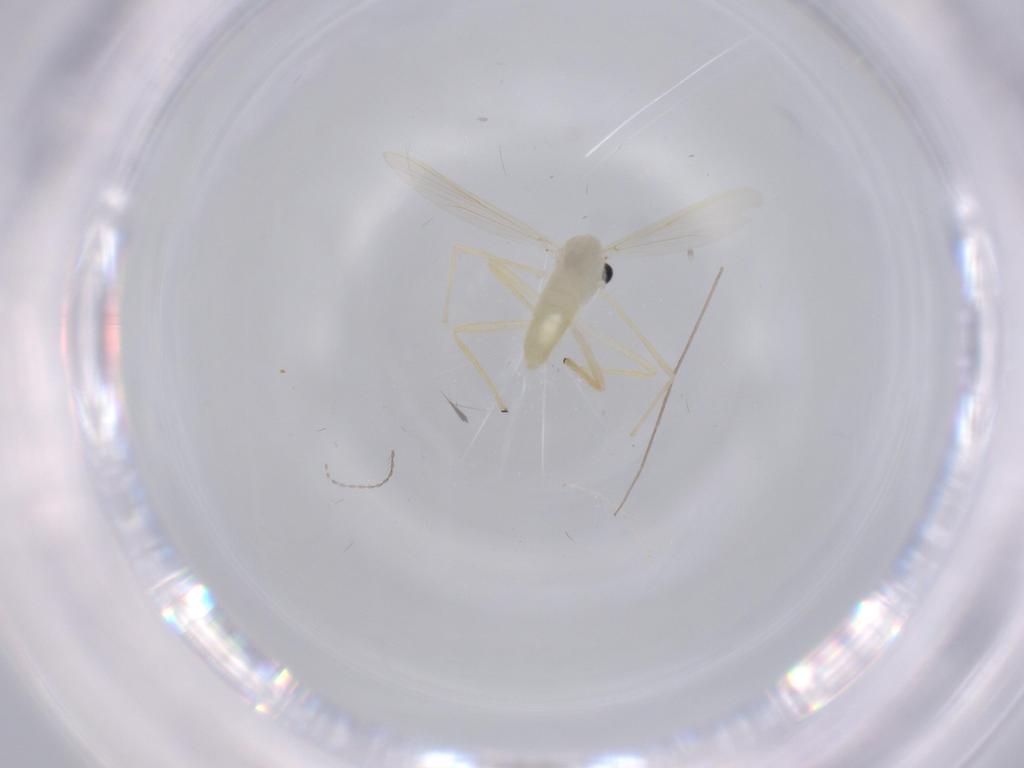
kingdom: Animalia
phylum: Arthropoda
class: Insecta
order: Diptera
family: Chironomidae
